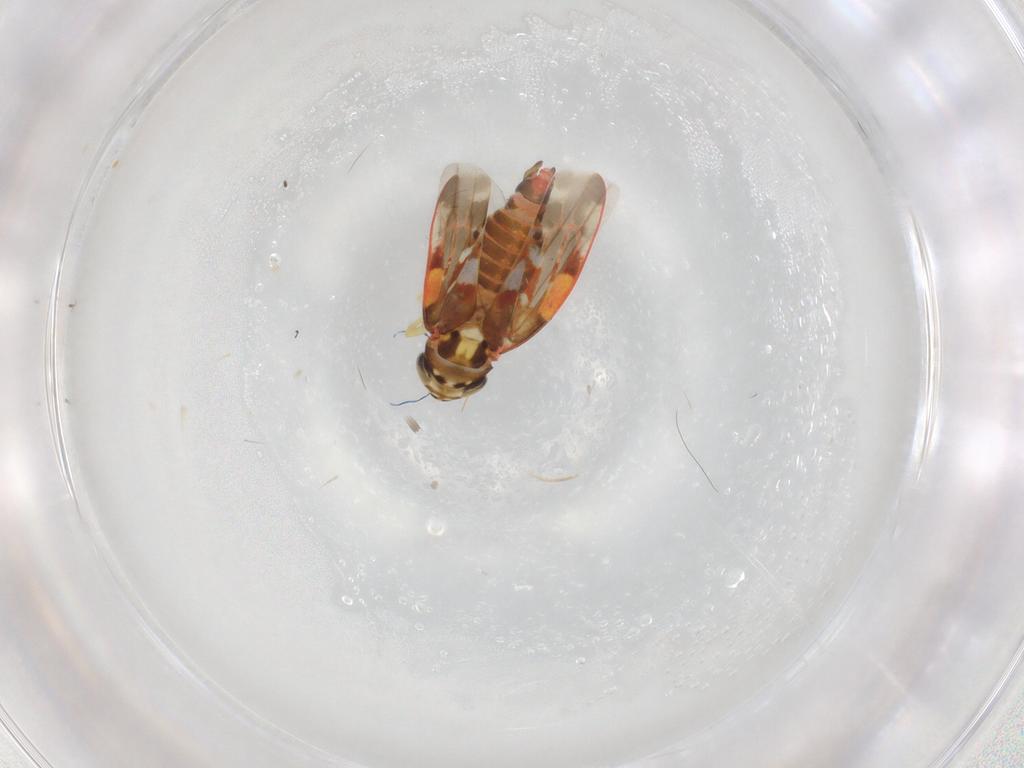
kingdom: Animalia
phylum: Arthropoda
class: Insecta
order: Hemiptera
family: Cicadellidae
